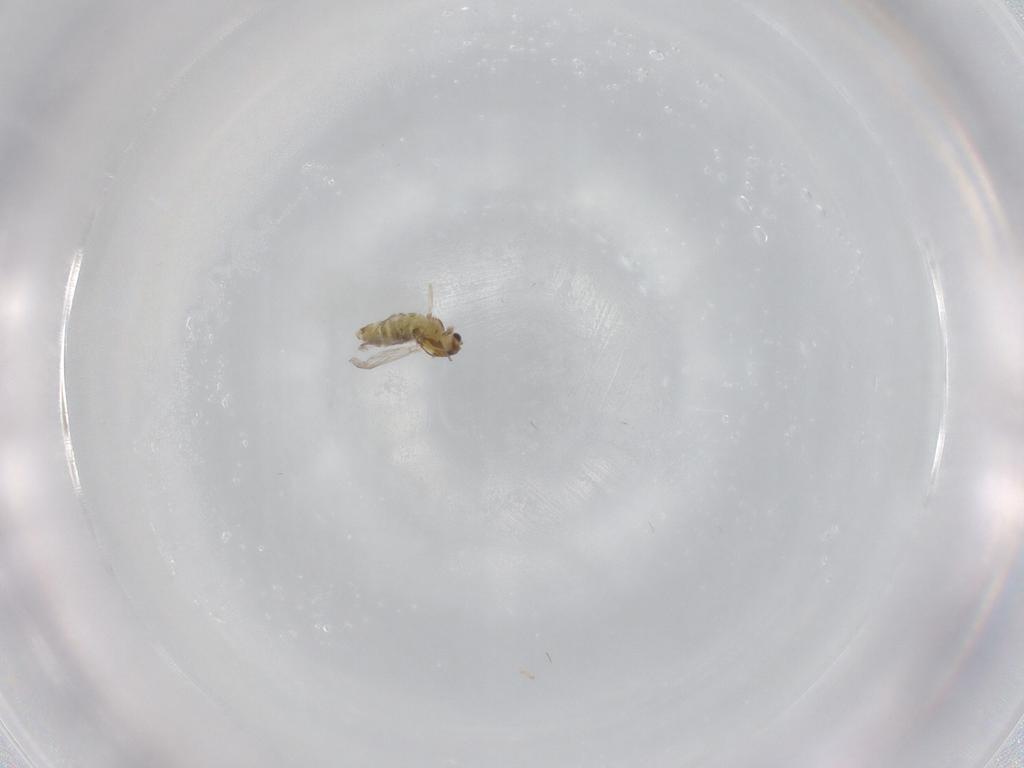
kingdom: Animalia
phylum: Arthropoda
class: Insecta
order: Diptera
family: Chironomidae
